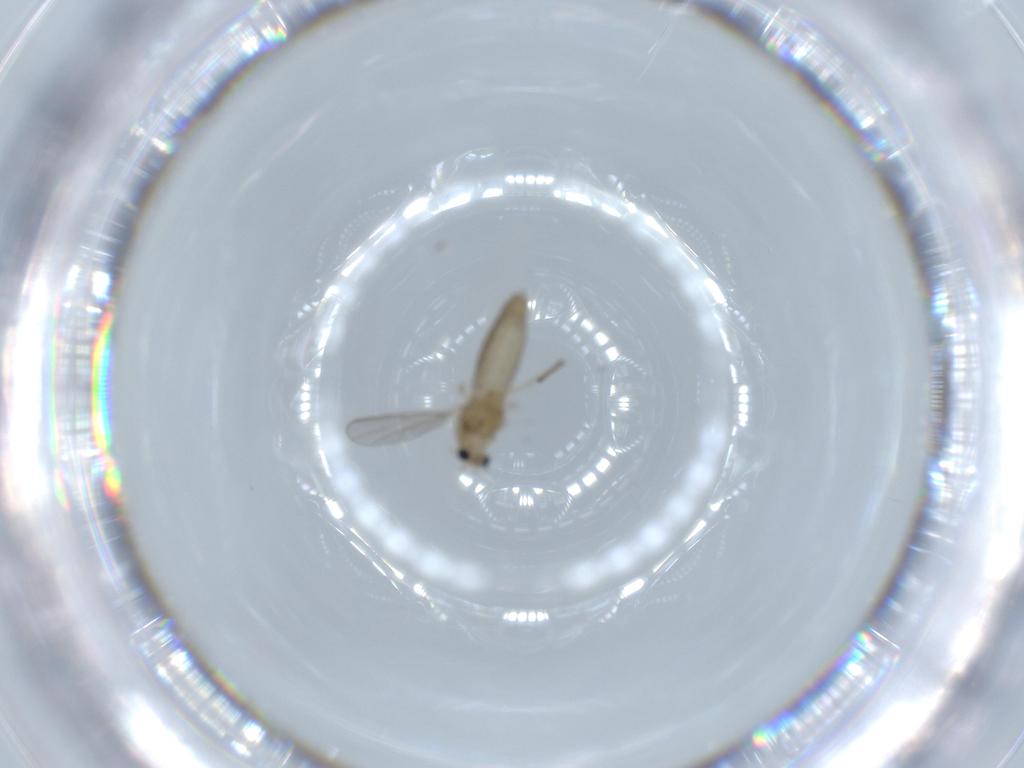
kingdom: Animalia
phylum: Arthropoda
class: Insecta
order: Diptera
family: Chironomidae
